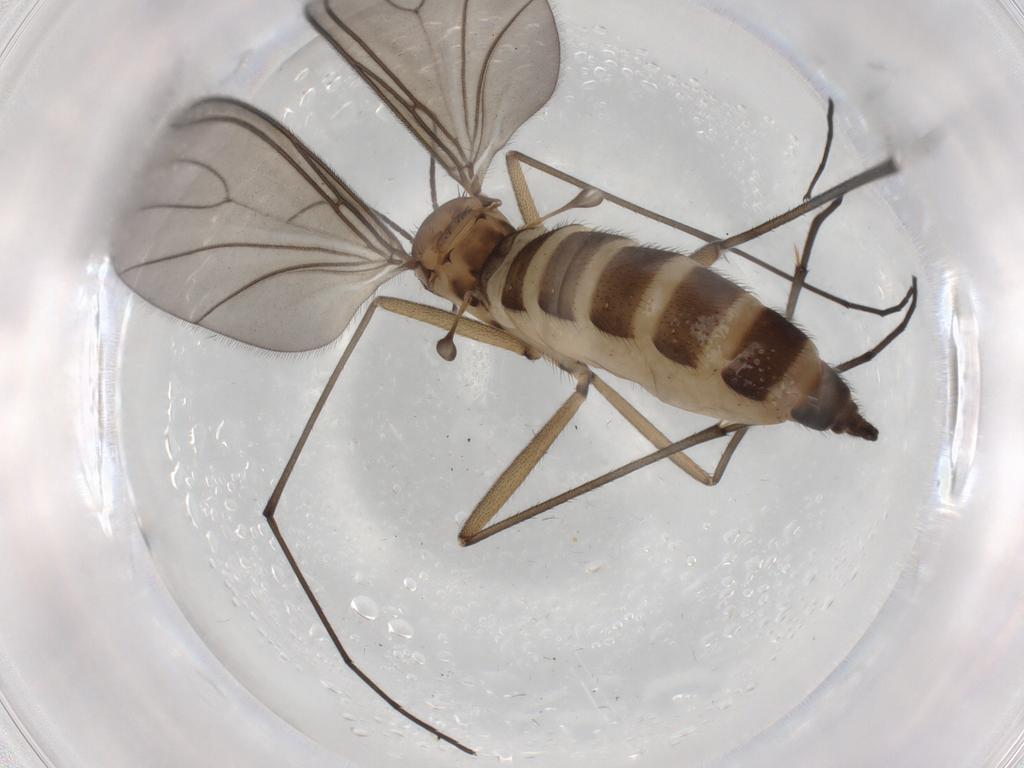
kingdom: Animalia
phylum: Arthropoda
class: Insecta
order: Diptera
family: Sciaridae
